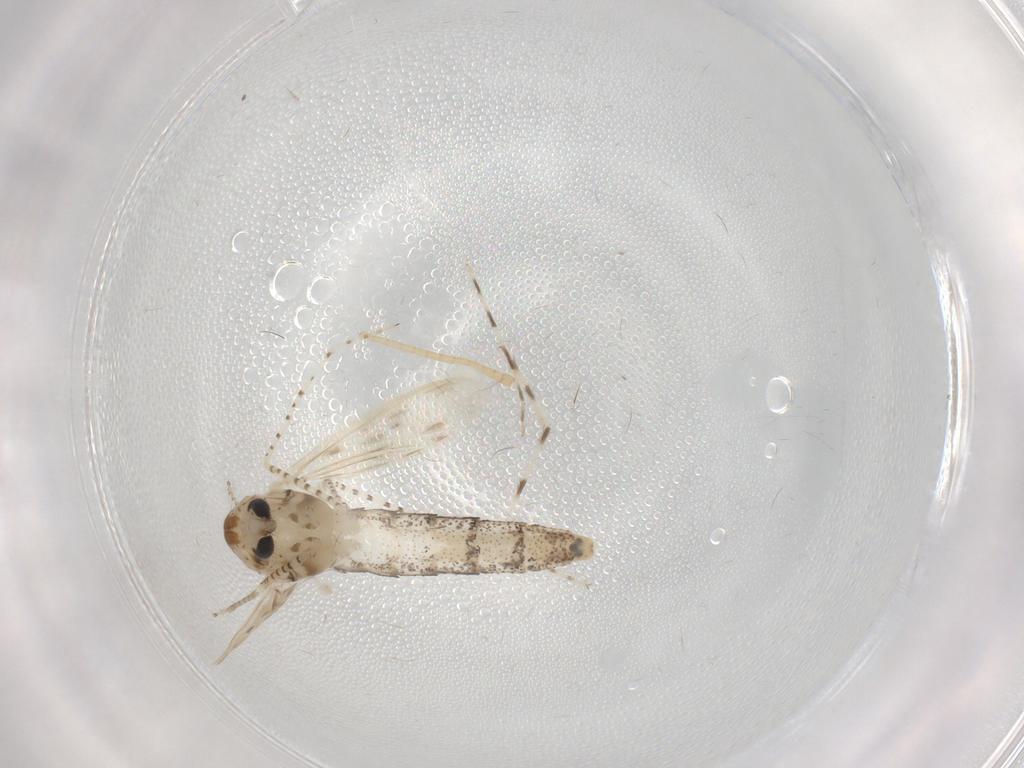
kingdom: Animalia
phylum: Arthropoda
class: Insecta
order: Diptera
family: Chaoboridae
